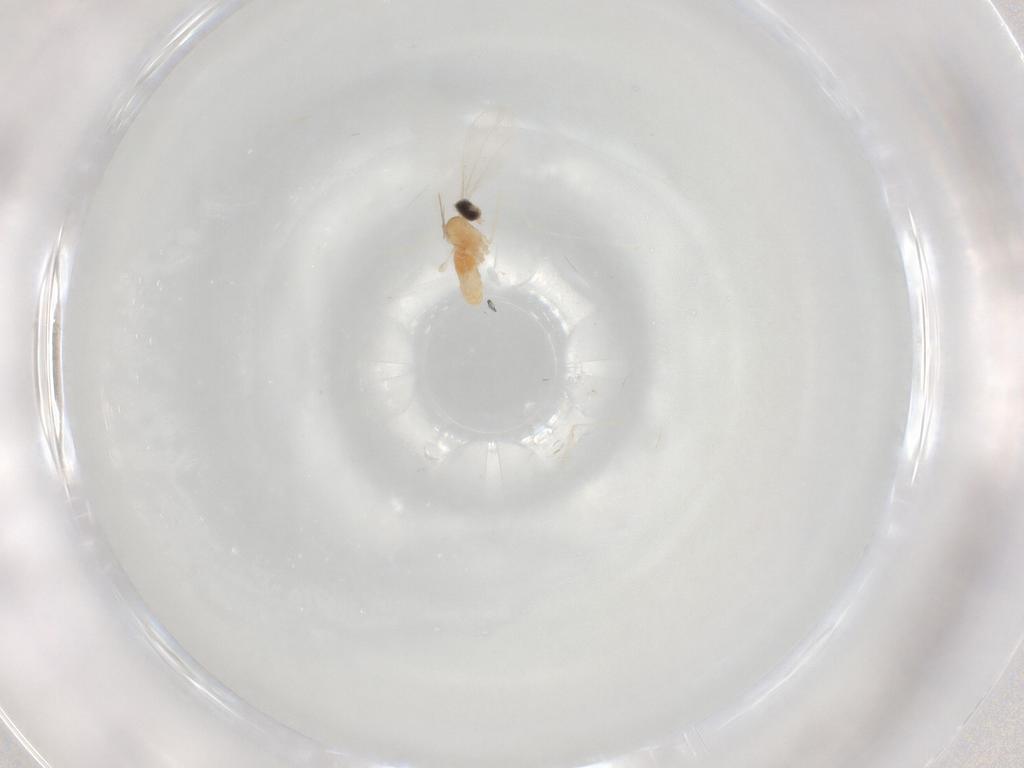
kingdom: Animalia
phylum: Arthropoda
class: Insecta
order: Diptera
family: Cecidomyiidae
